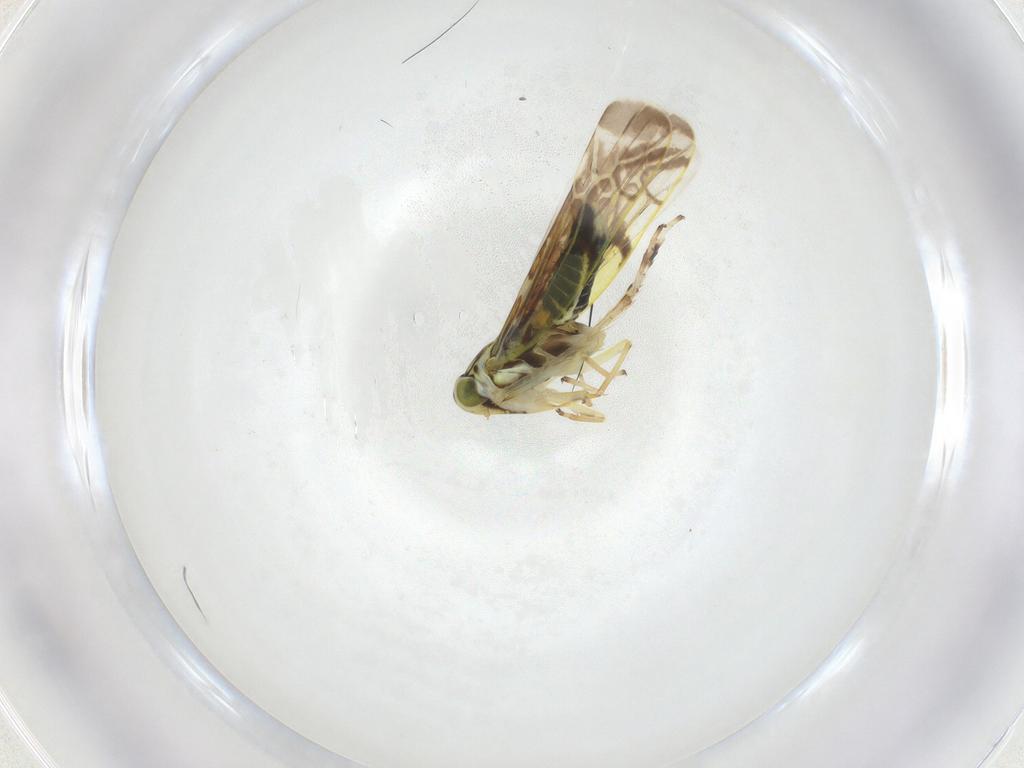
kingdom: Animalia
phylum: Arthropoda
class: Insecta
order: Hemiptera
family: Cicadellidae
